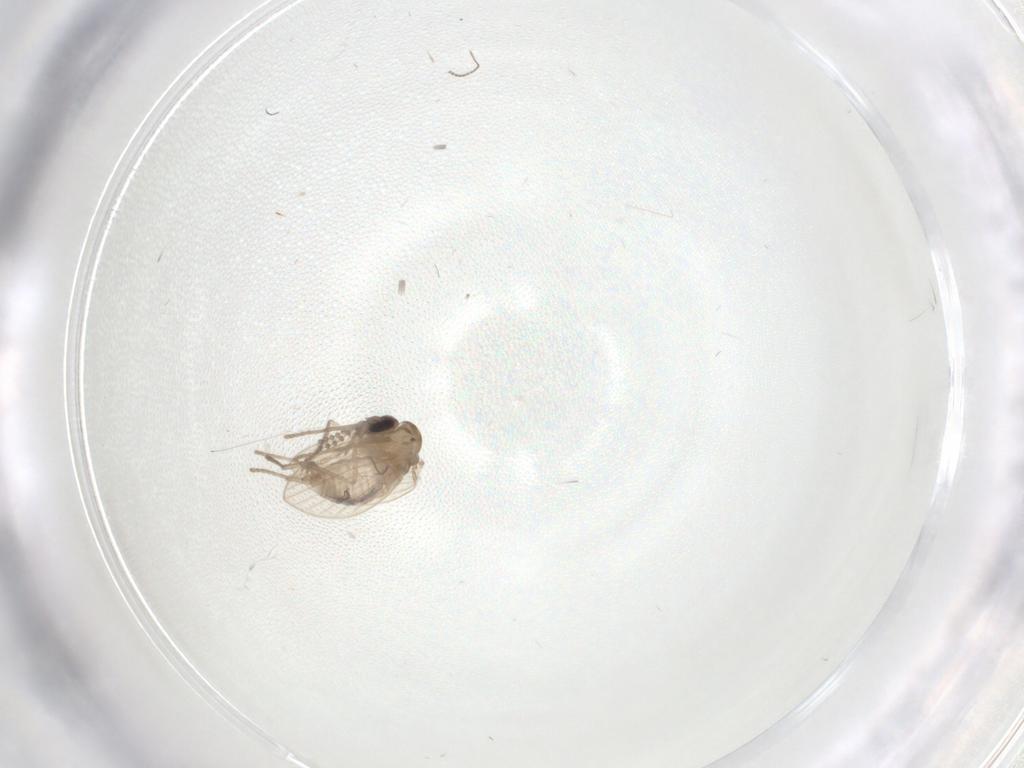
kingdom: Animalia
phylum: Arthropoda
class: Insecta
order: Diptera
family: Psychodidae
